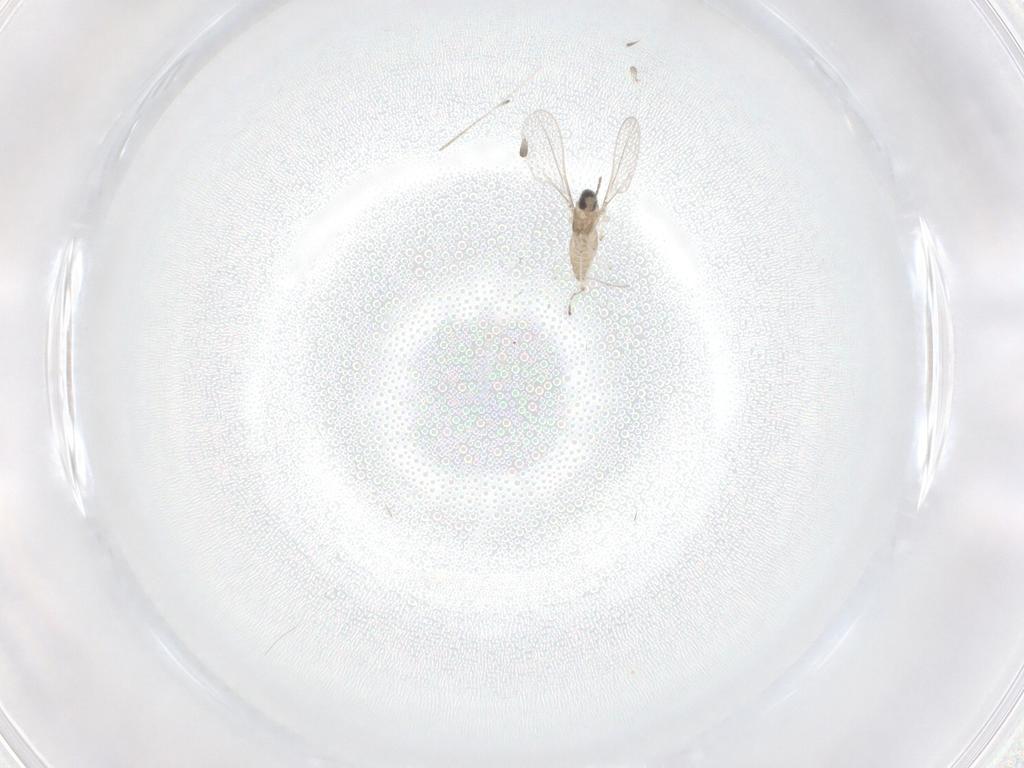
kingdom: Animalia
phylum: Arthropoda
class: Insecta
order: Diptera
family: Cecidomyiidae
